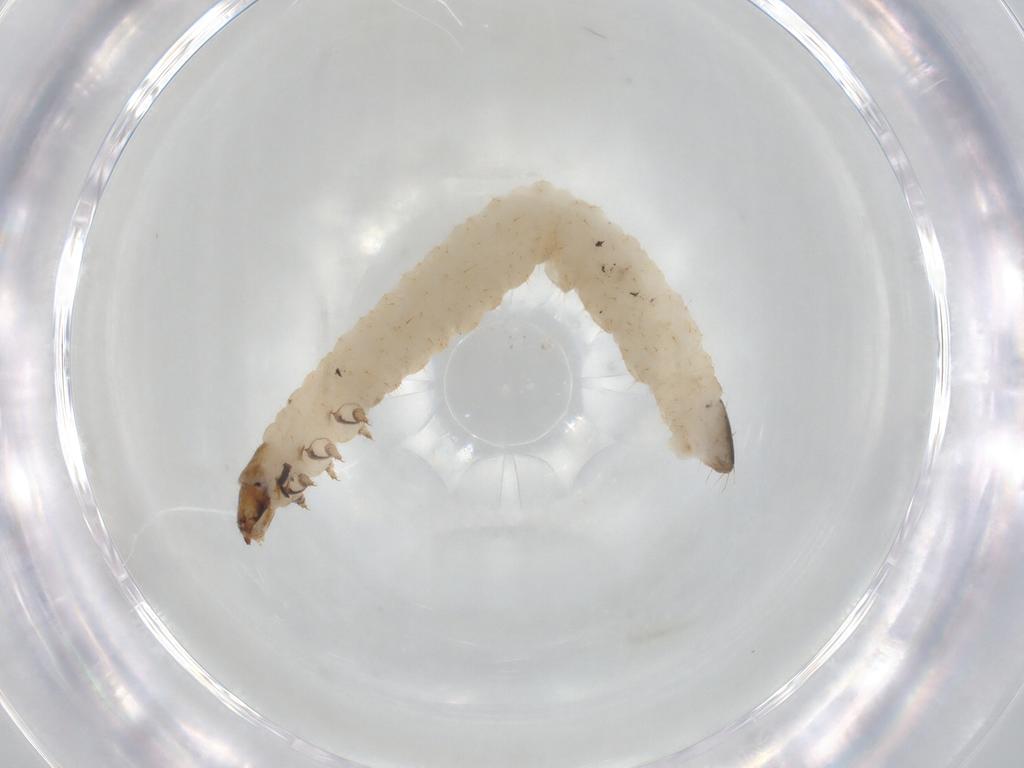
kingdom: Animalia
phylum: Arthropoda
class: Insecta
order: Coleoptera
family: Chrysomelidae
